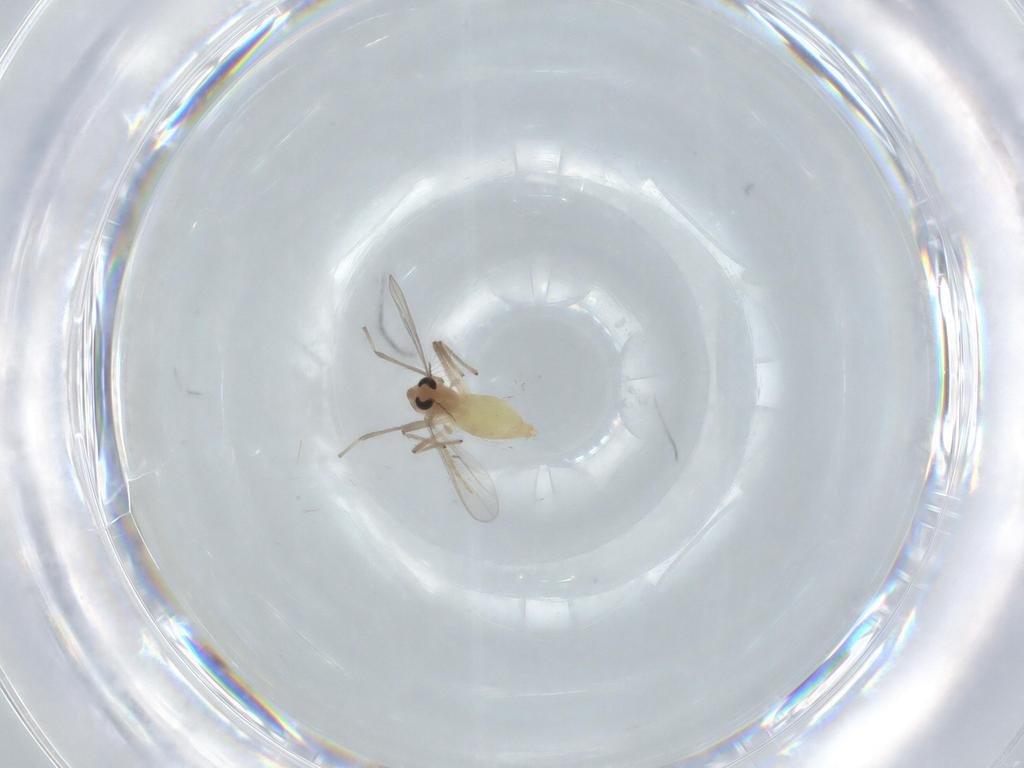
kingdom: Animalia
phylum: Arthropoda
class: Insecta
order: Diptera
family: Chironomidae
